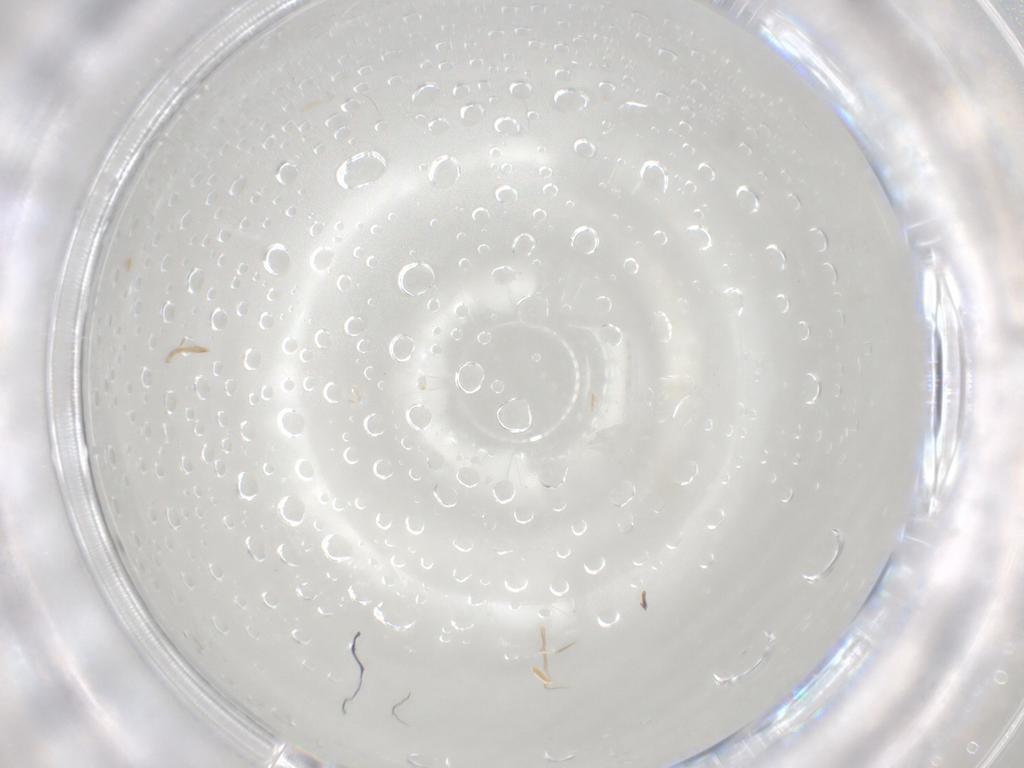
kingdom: Animalia
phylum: Arthropoda
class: Arachnida
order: Trombidiformes
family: Scutacaridae
